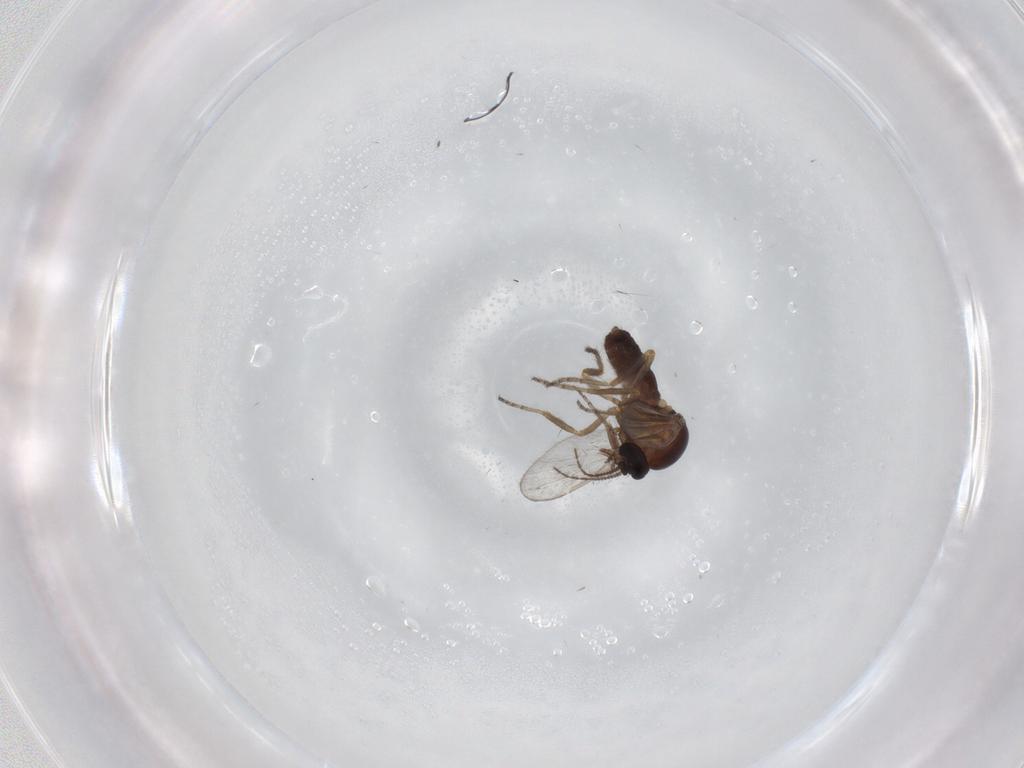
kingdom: Animalia
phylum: Arthropoda
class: Insecta
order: Diptera
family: Ceratopogonidae
